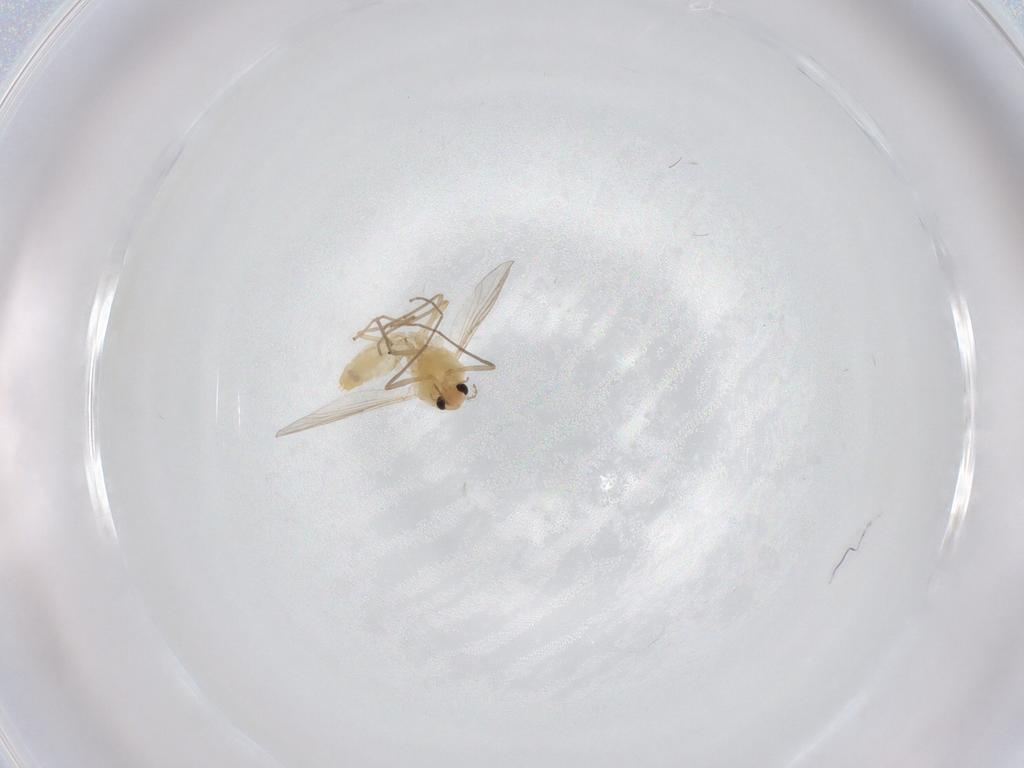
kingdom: Animalia
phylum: Arthropoda
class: Insecta
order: Diptera
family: Chironomidae
